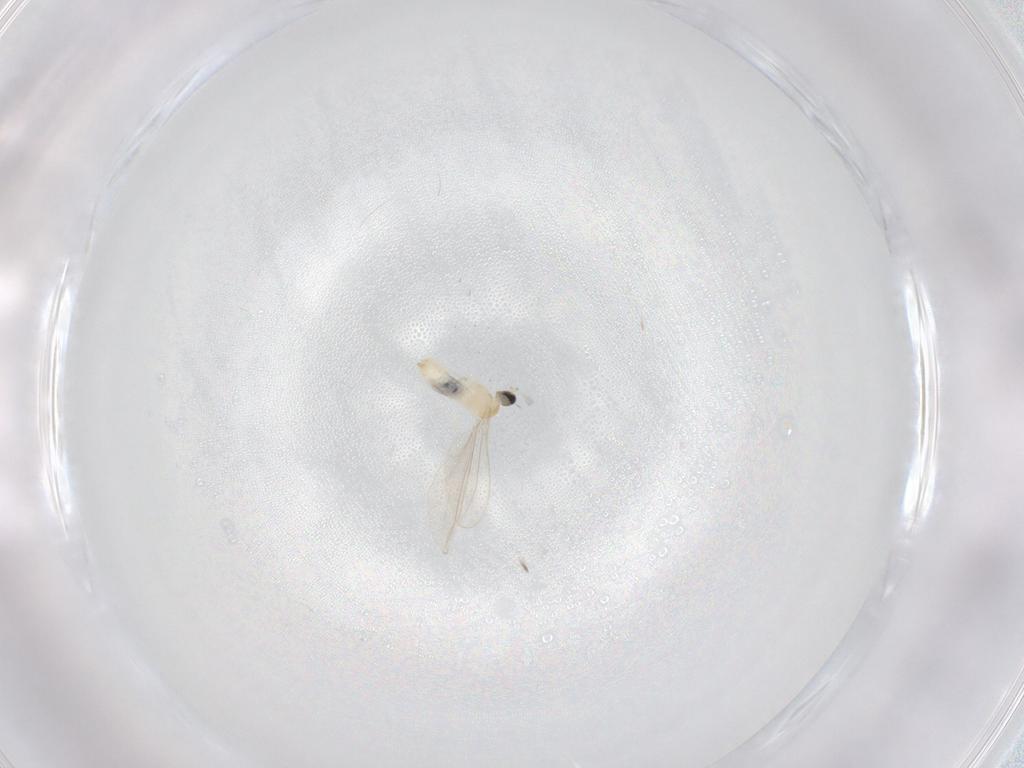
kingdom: Animalia
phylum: Arthropoda
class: Insecta
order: Diptera
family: Cecidomyiidae
